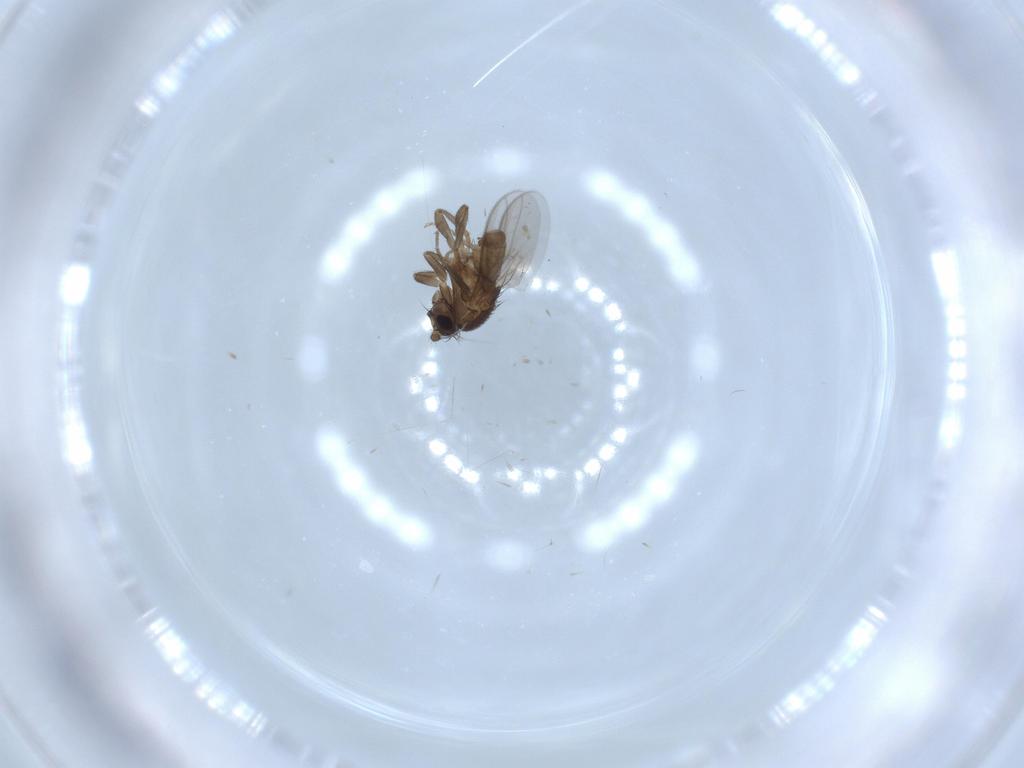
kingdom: Animalia
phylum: Arthropoda
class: Insecta
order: Diptera
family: Sphaeroceridae
